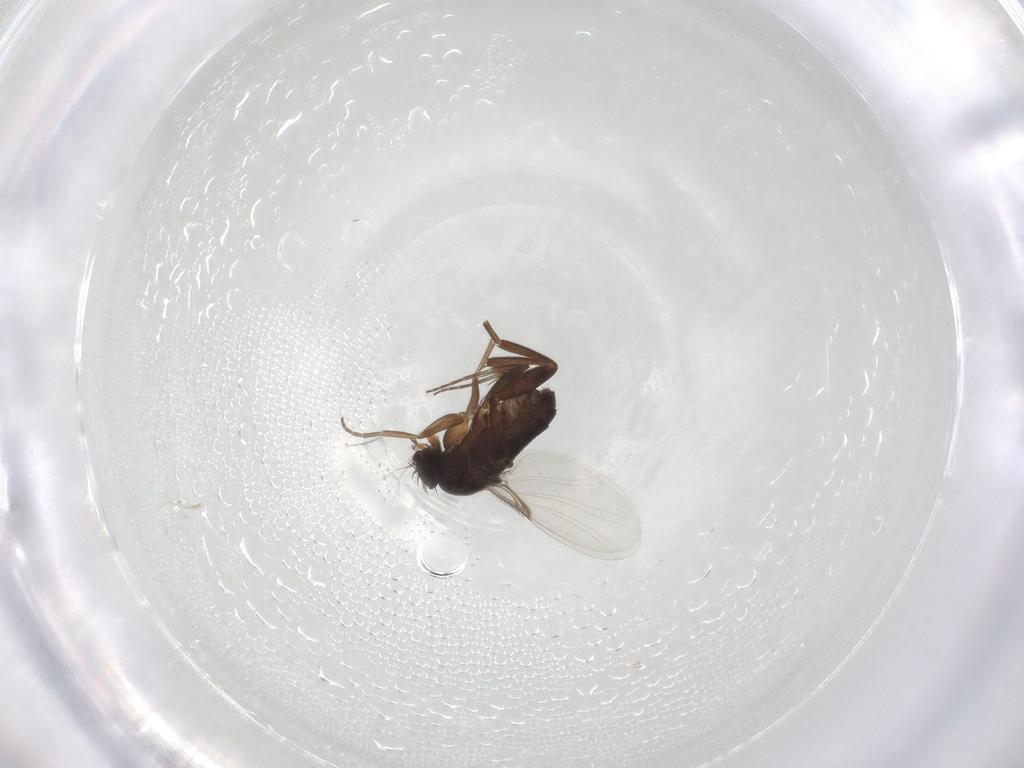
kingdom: Animalia
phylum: Arthropoda
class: Insecta
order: Diptera
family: Phoridae
